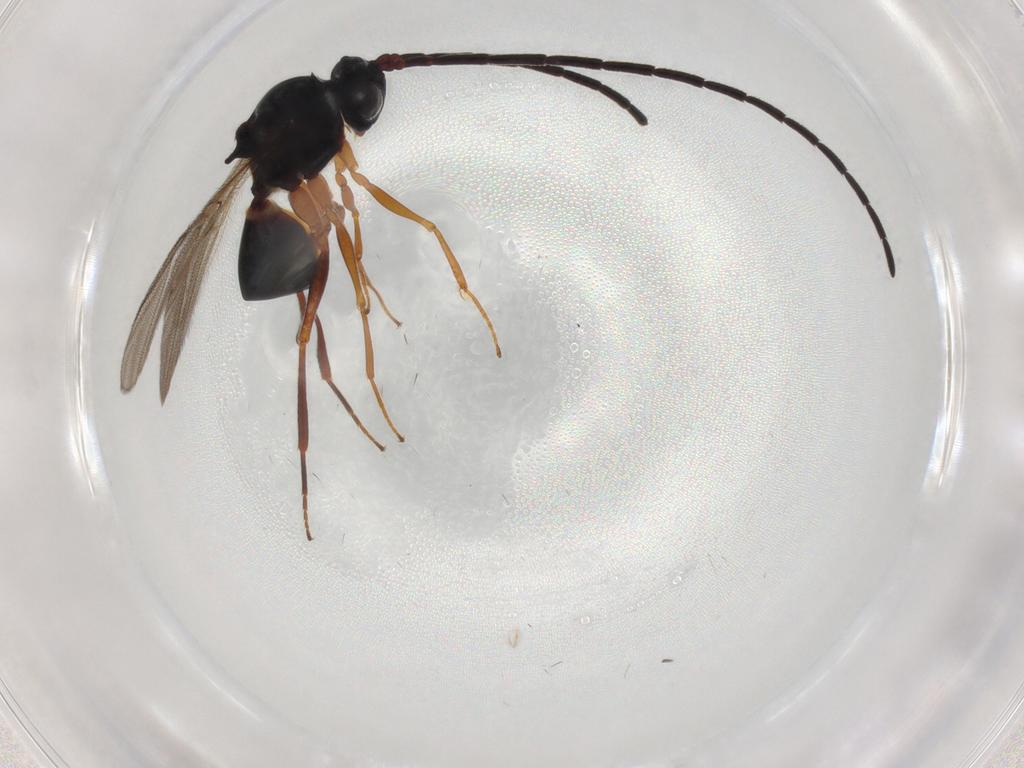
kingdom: Animalia
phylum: Arthropoda
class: Insecta
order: Hymenoptera
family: Figitidae
